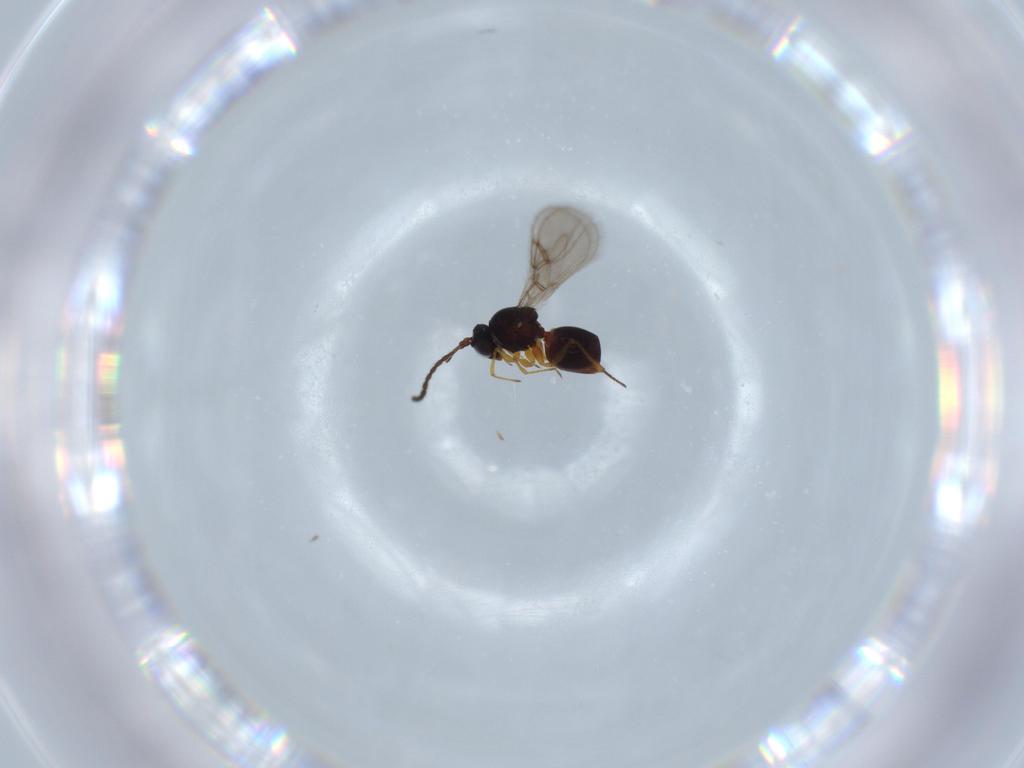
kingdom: Animalia
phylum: Arthropoda
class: Insecta
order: Hymenoptera
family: Figitidae
